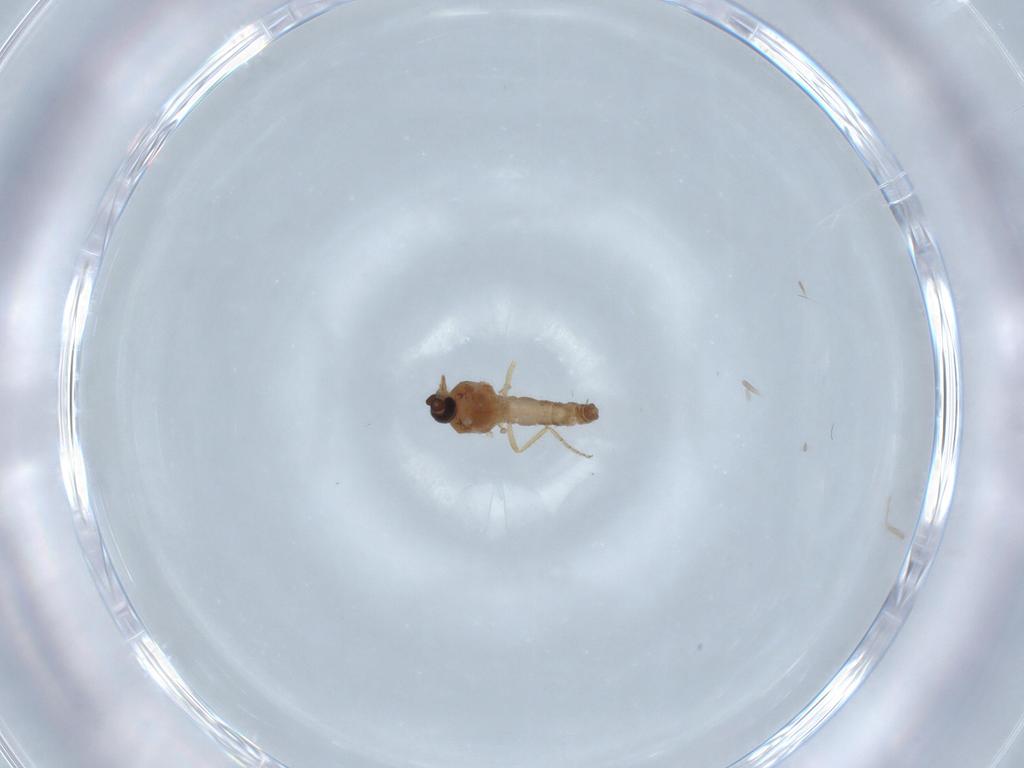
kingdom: Animalia
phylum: Arthropoda
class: Insecta
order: Diptera
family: Ceratopogonidae
